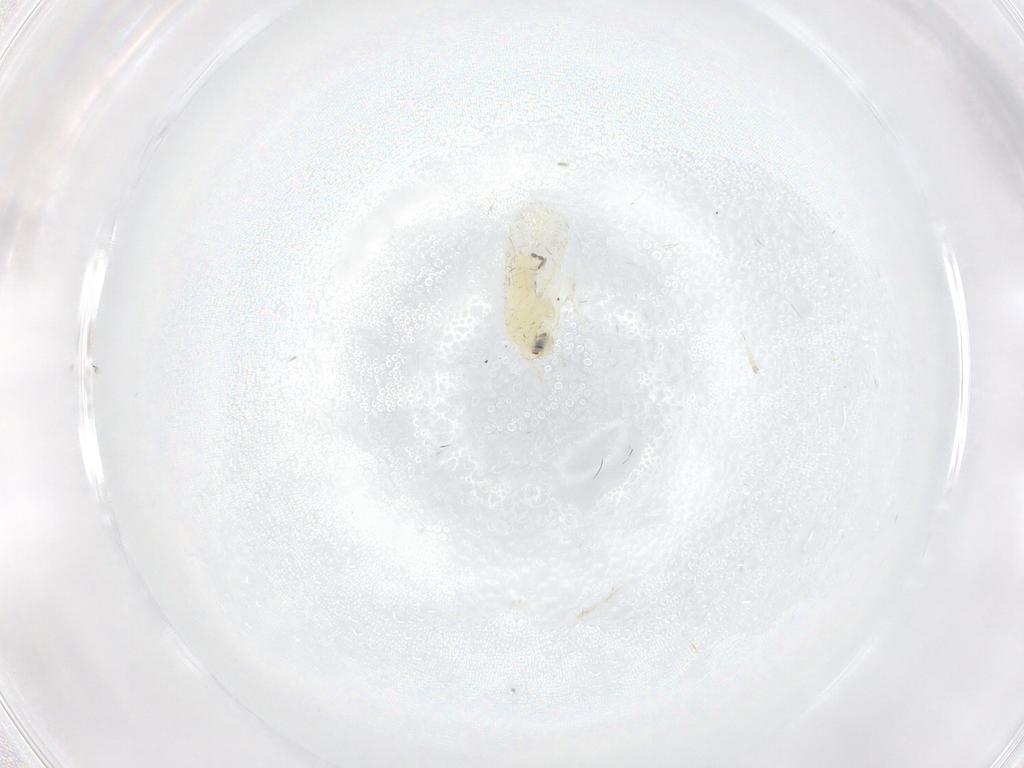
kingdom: Animalia
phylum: Arthropoda
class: Insecta
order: Hemiptera
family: Aleyrodidae
